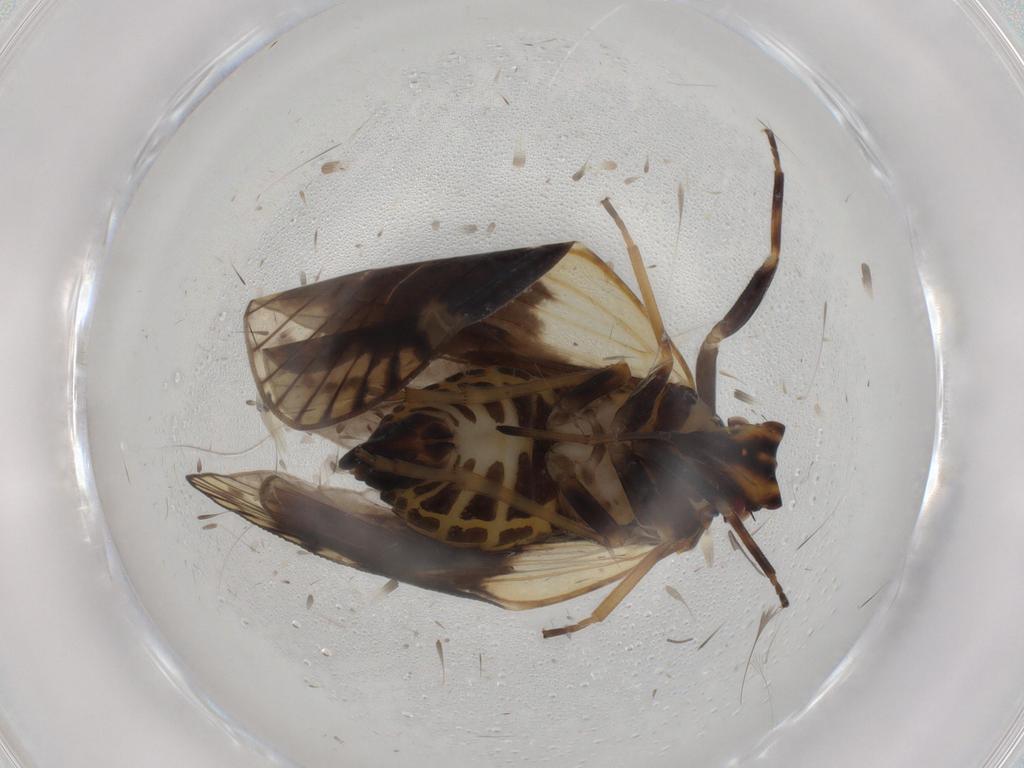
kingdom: Animalia
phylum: Arthropoda
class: Insecta
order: Hemiptera
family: Cixiidae
